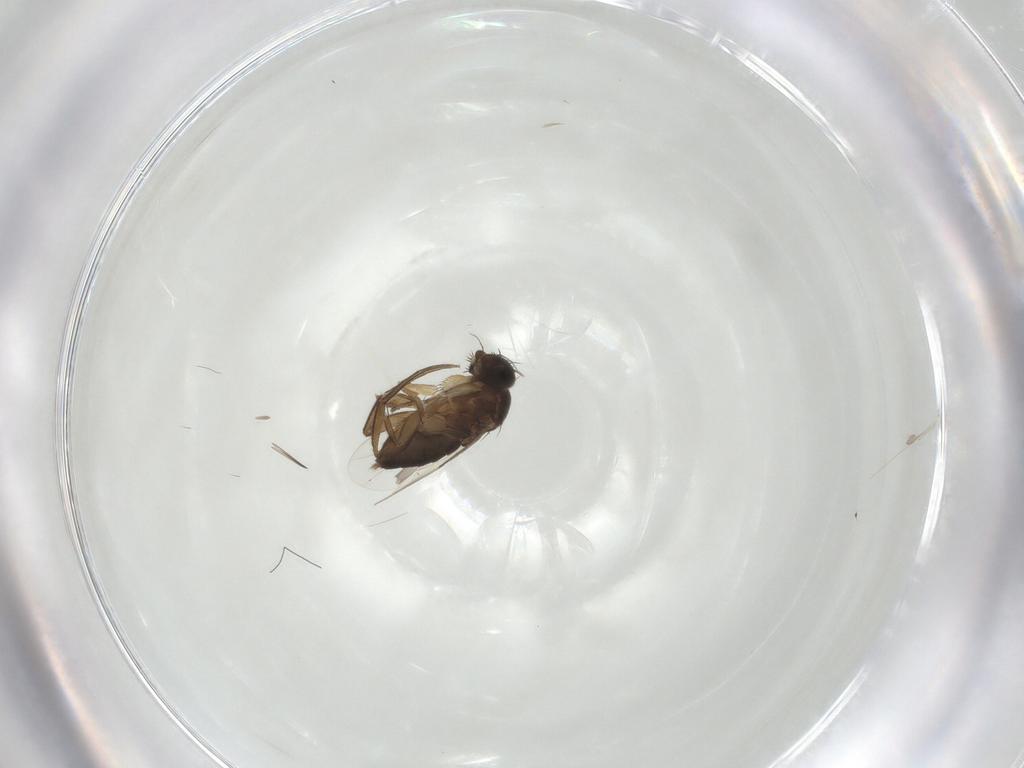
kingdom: Animalia
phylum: Arthropoda
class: Insecta
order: Diptera
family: Phoridae
